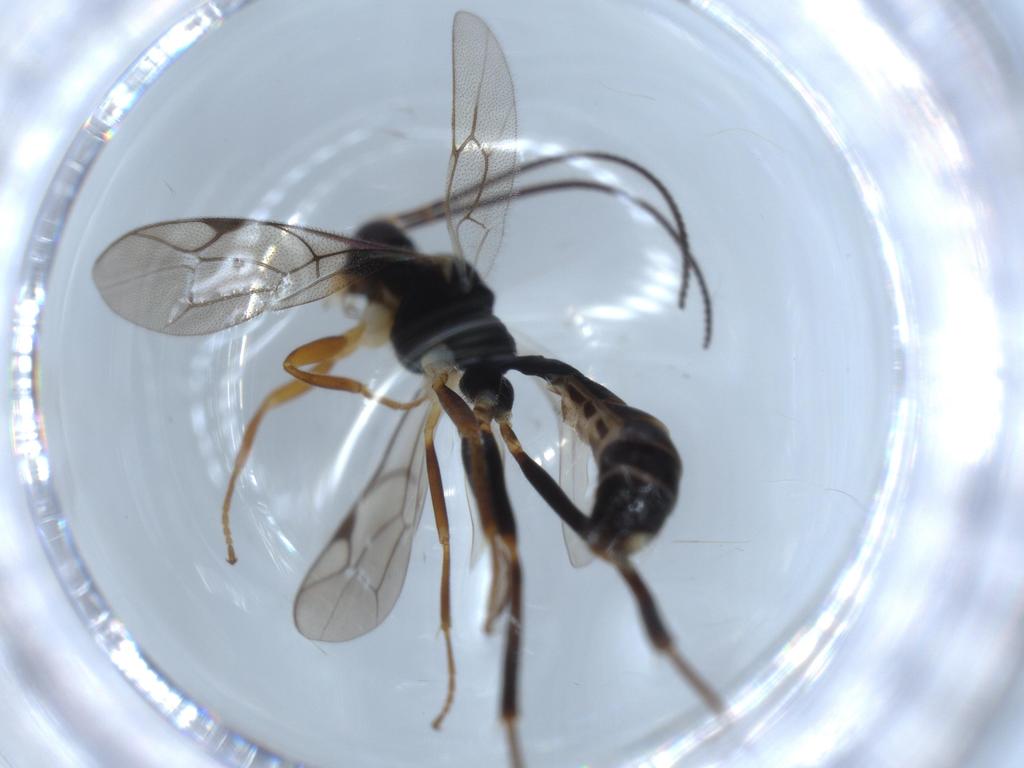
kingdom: Animalia
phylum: Arthropoda
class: Insecta
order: Hymenoptera
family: Ichneumonidae
